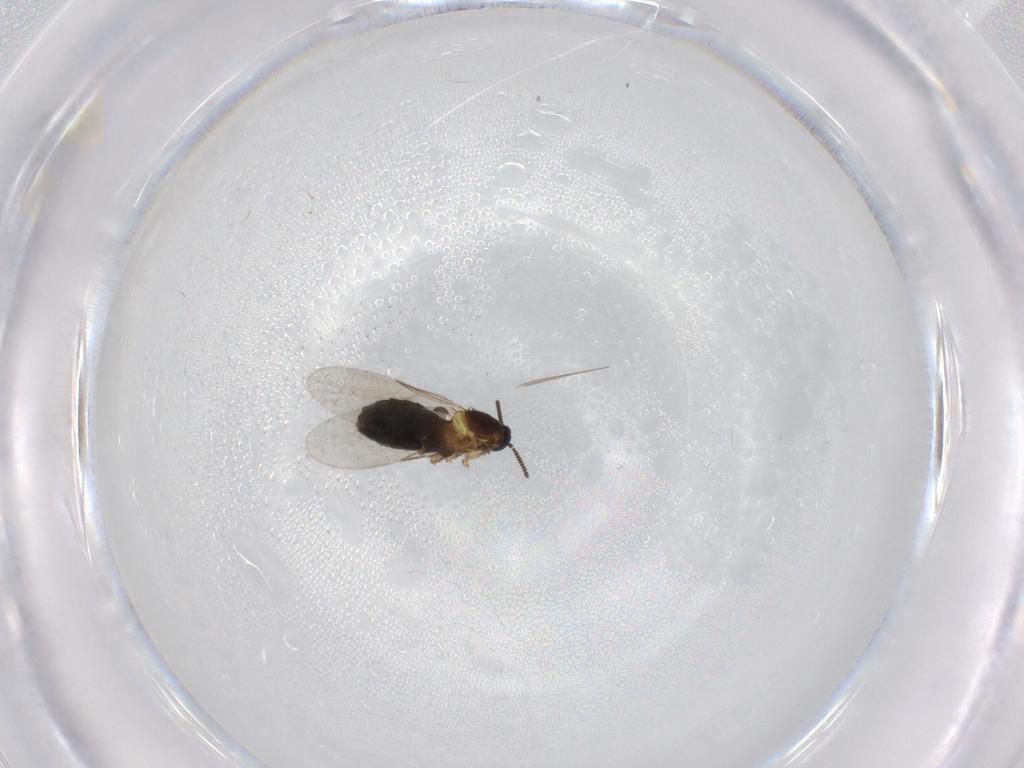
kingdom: Animalia
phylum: Arthropoda
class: Insecta
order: Diptera
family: Scatopsidae
